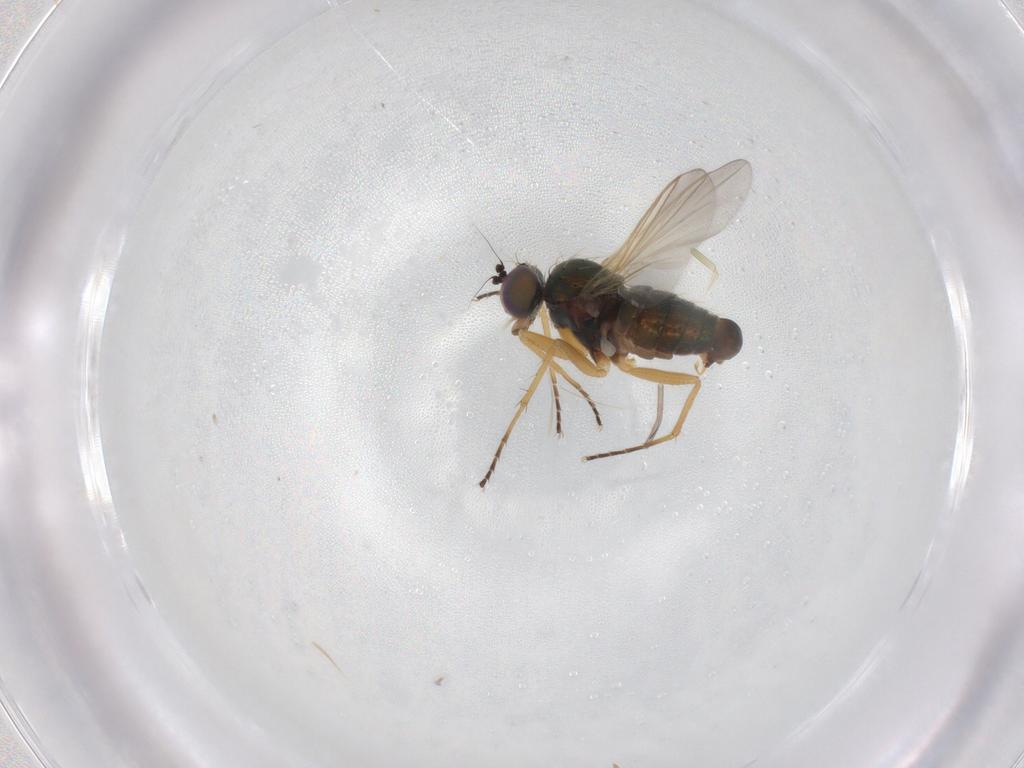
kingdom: Animalia
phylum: Arthropoda
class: Insecta
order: Diptera
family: Dolichopodidae
